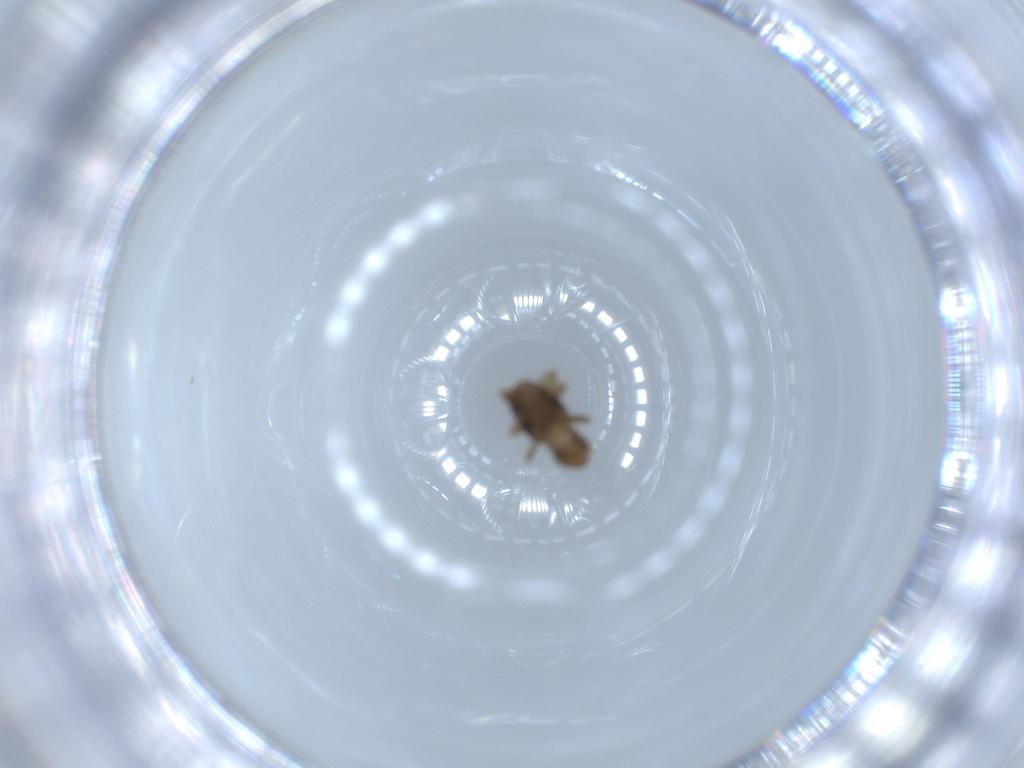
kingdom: Animalia
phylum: Arthropoda
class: Insecta
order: Diptera
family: Phoridae
